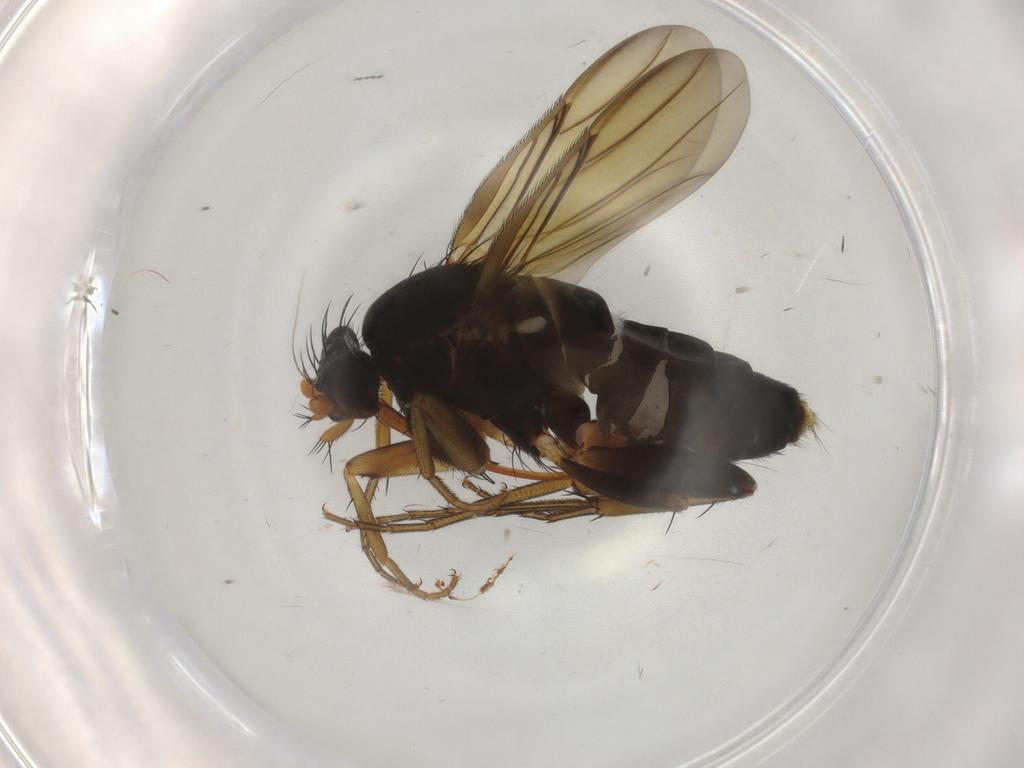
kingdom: Animalia
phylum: Arthropoda
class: Insecta
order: Diptera
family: Phoridae
